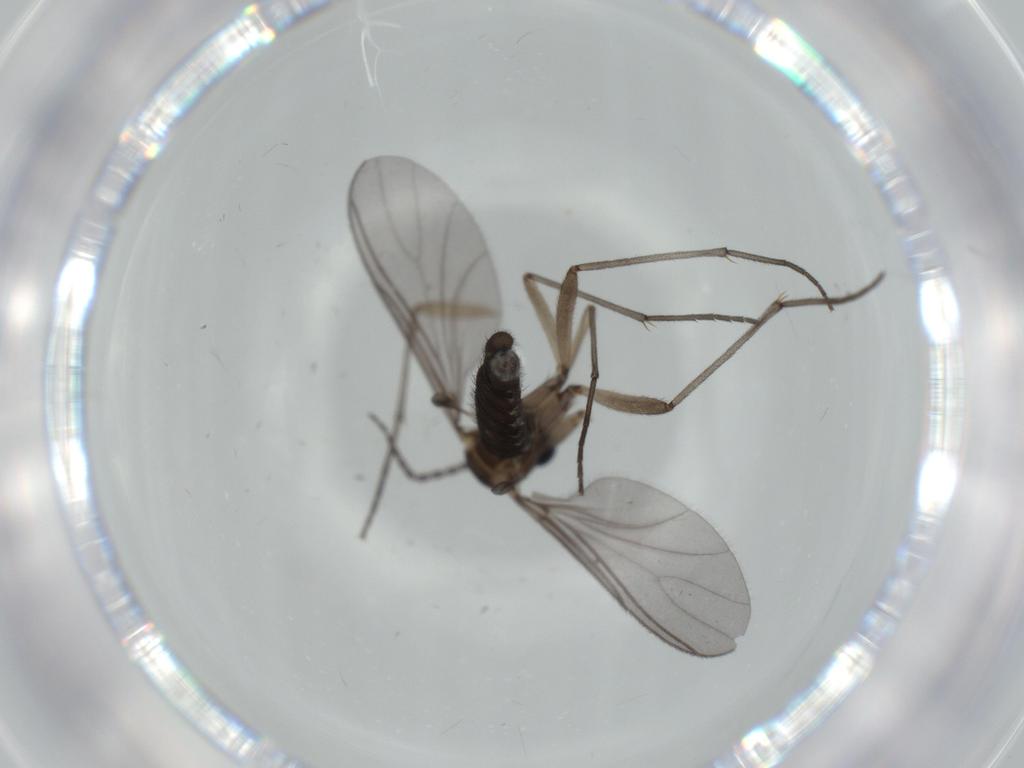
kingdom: Animalia
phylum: Arthropoda
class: Insecta
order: Diptera
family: Sciaridae
